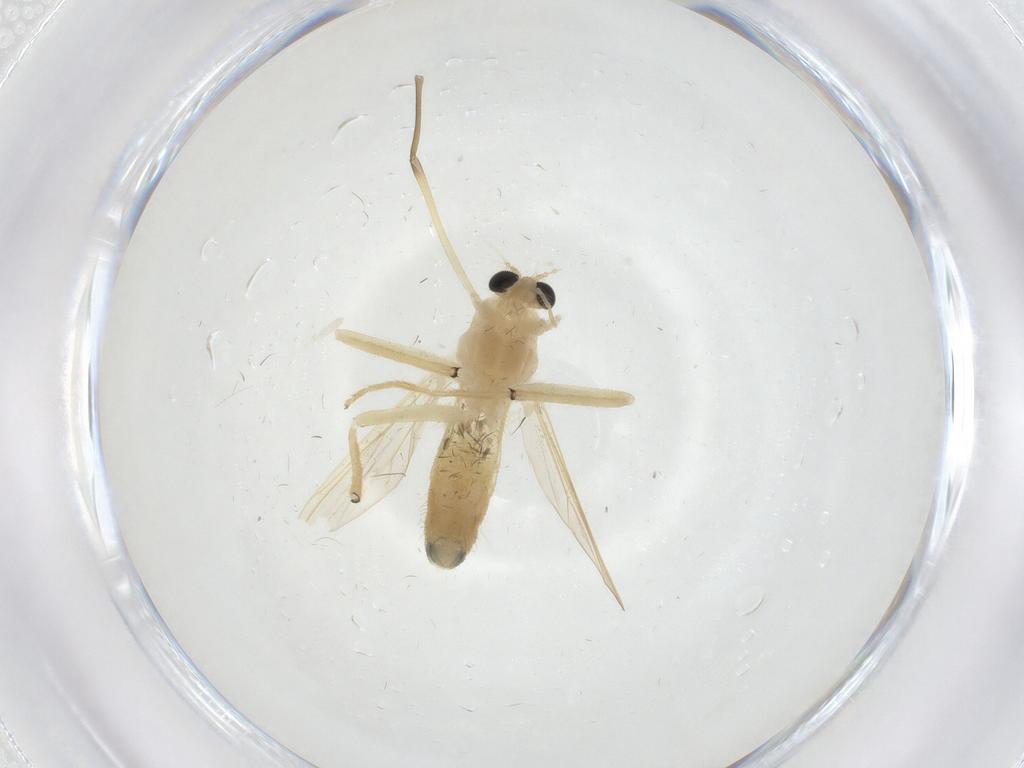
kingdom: Animalia
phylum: Arthropoda
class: Insecta
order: Diptera
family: Chironomidae
